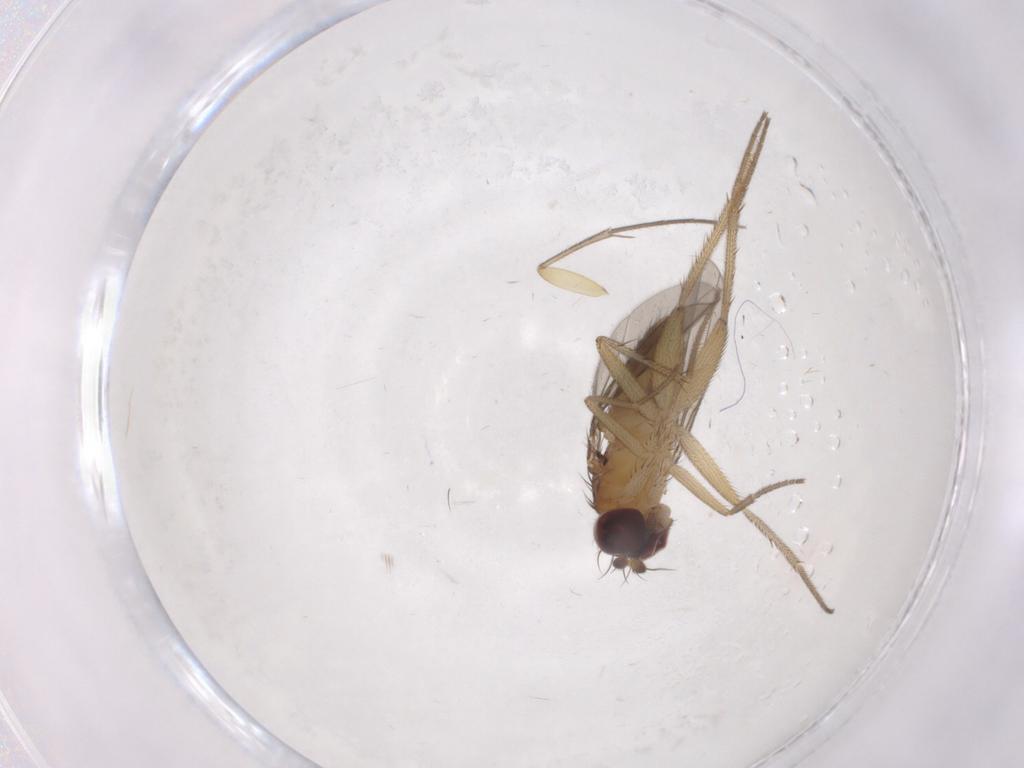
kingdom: Animalia
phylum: Arthropoda
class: Insecta
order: Diptera
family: Dolichopodidae
